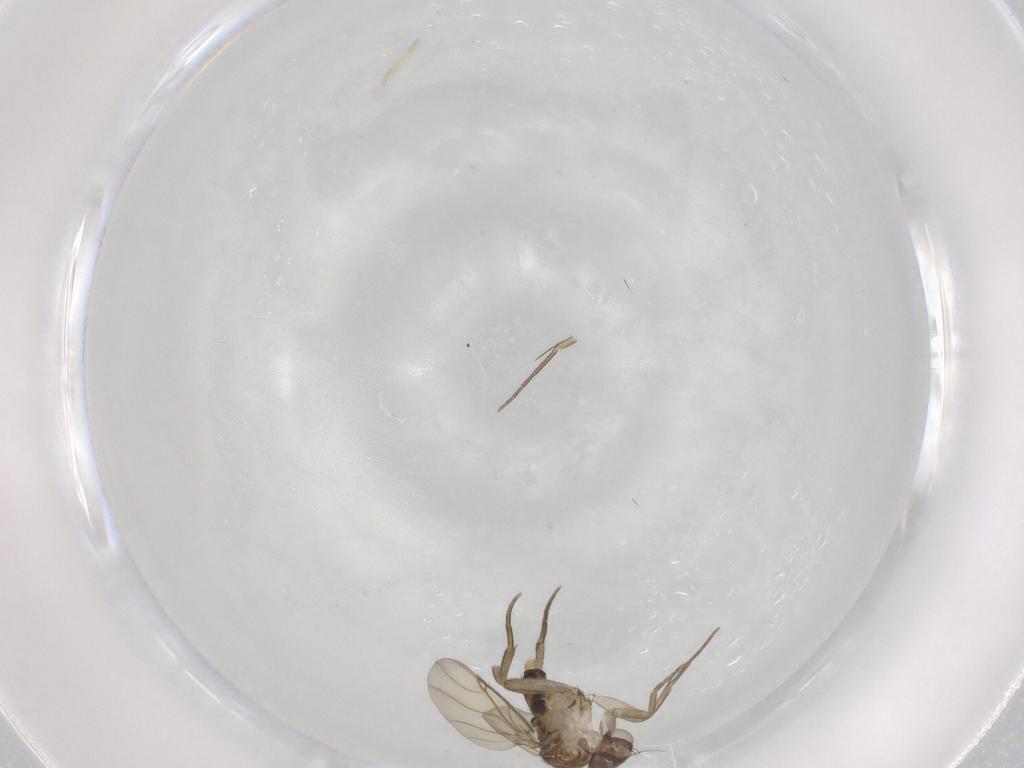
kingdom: Animalia
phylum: Arthropoda
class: Insecta
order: Diptera
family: Phoridae
